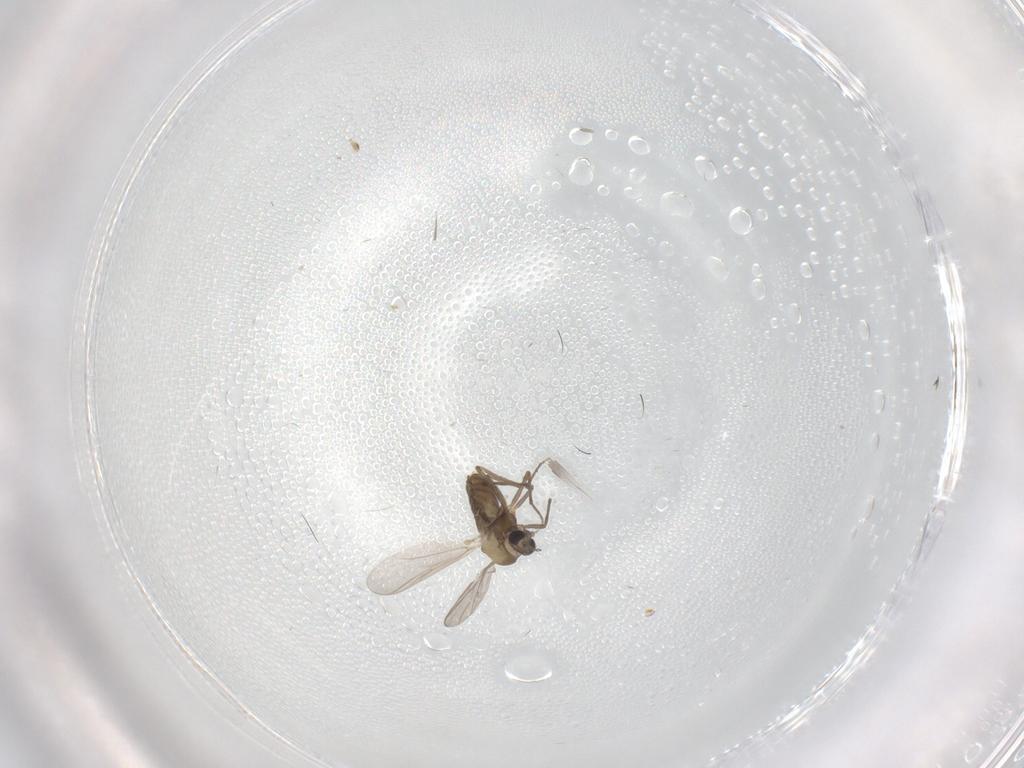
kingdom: Animalia
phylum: Arthropoda
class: Insecta
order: Diptera
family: Cecidomyiidae
